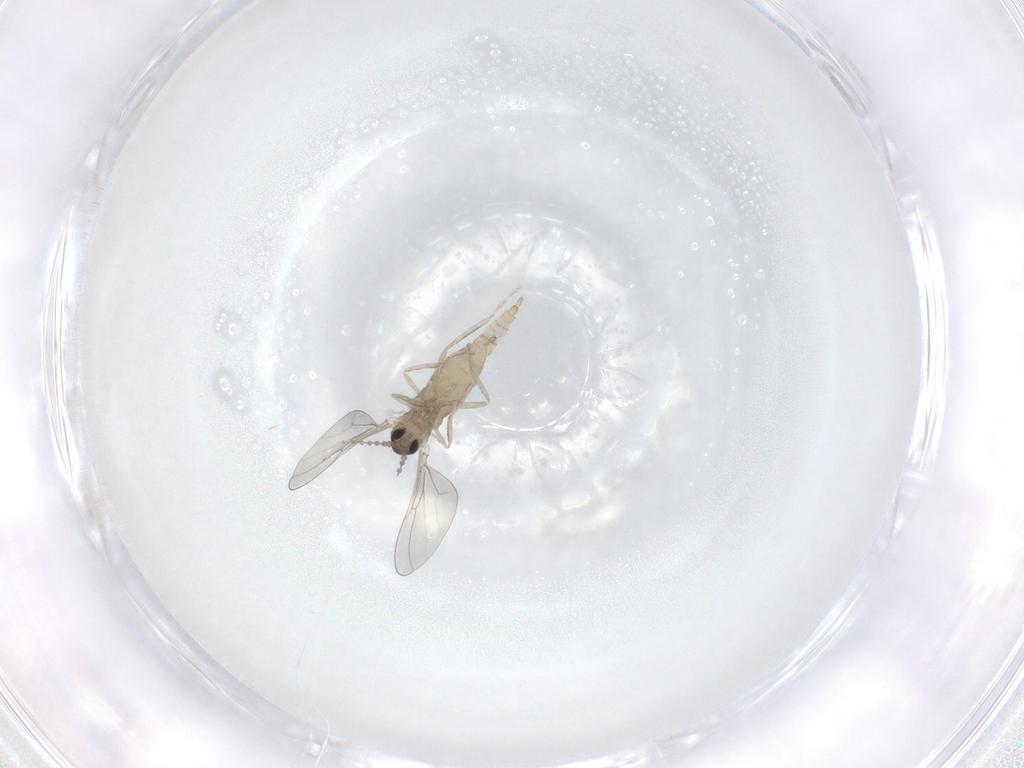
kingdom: Animalia
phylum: Arthropoda
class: Insecta
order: Diptera
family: Cecidomyiidae
